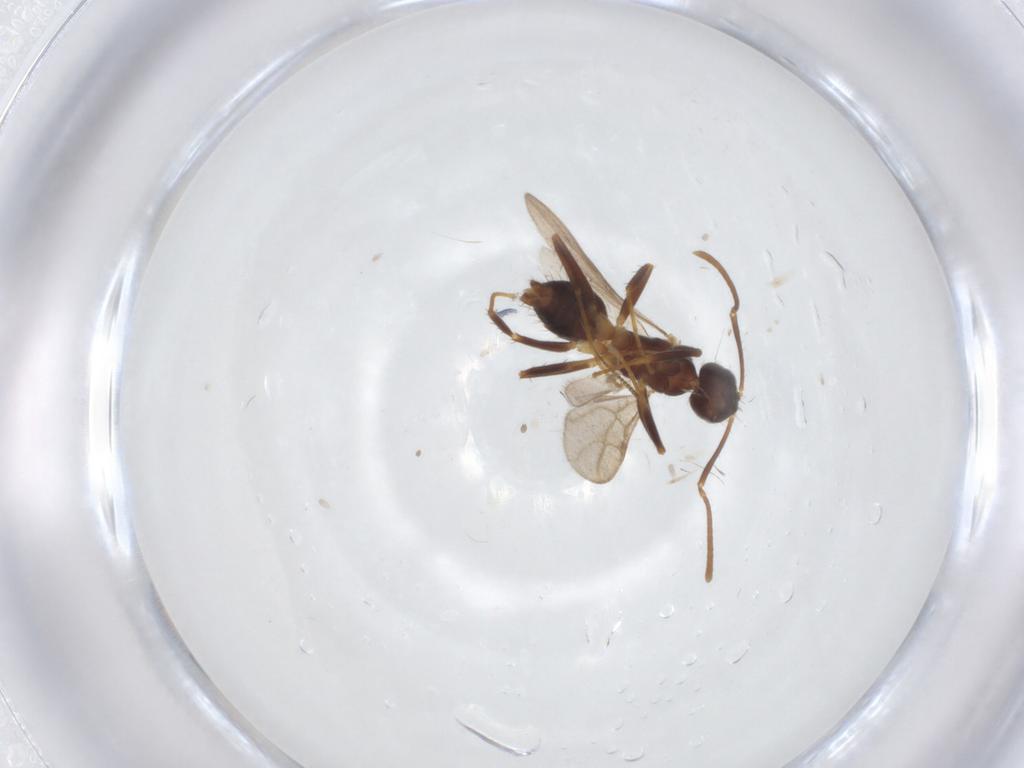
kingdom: Animalia
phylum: Arthropoda
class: Insecta
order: Hymenoptera
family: Formicidae
